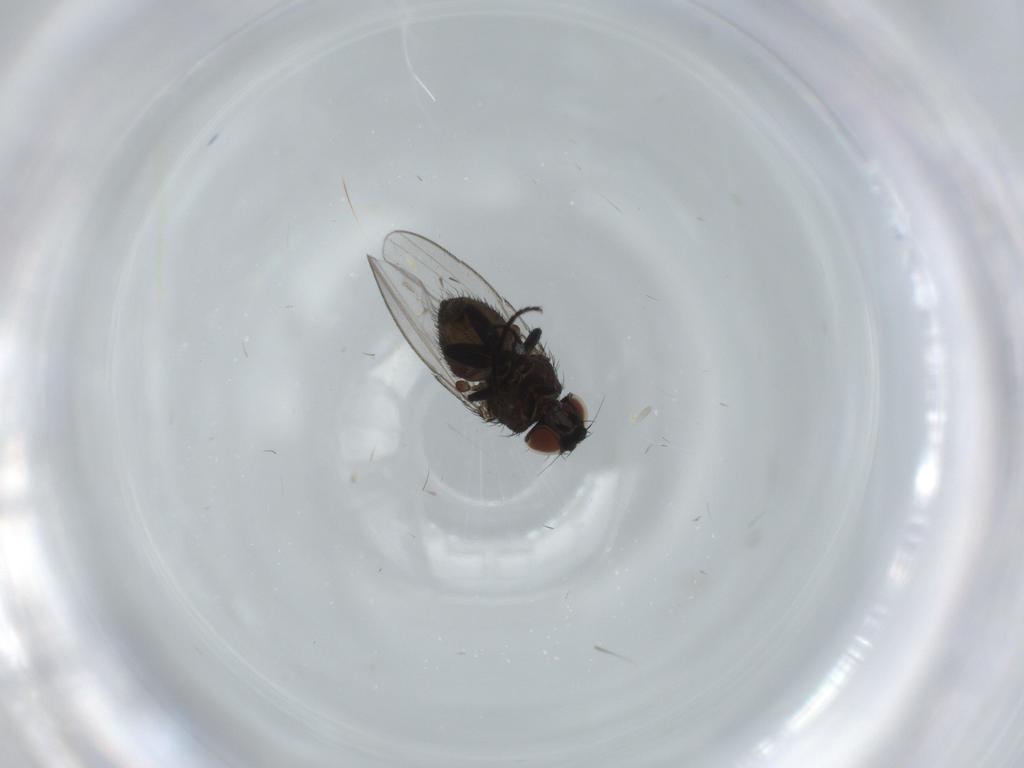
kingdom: Animalia
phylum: Arthropoda
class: Insecta
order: Diptera
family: Milichiidae
